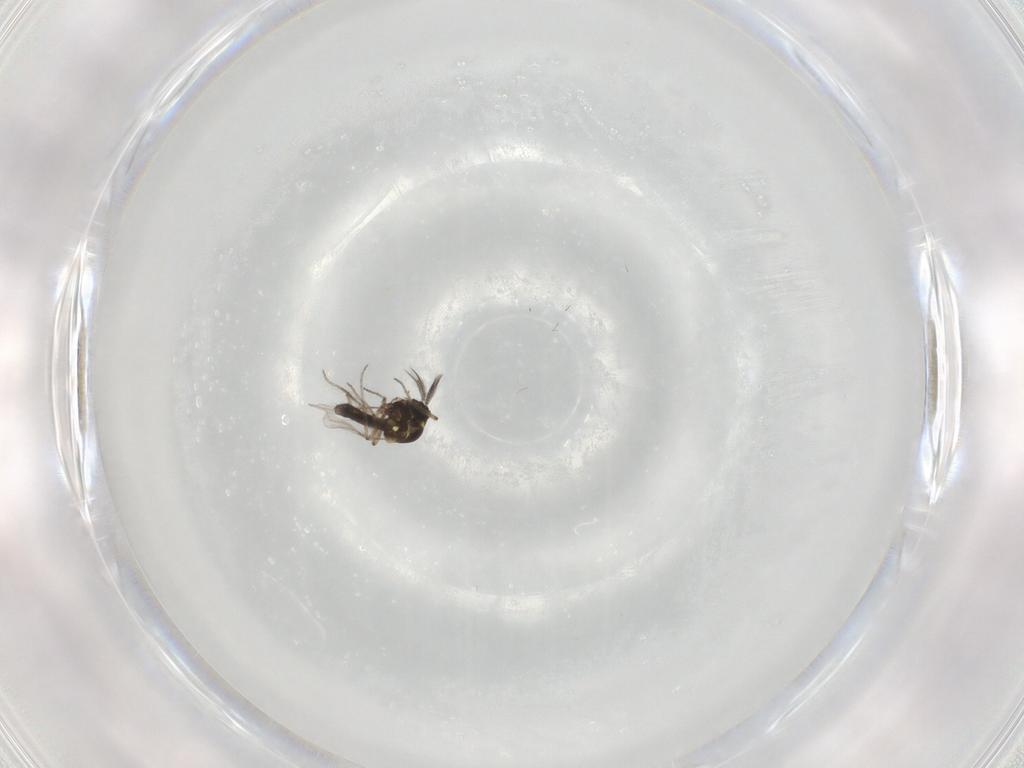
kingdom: Animalia
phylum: Arthropoda
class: Insecta
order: Diptera
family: Ceratopogonidae
